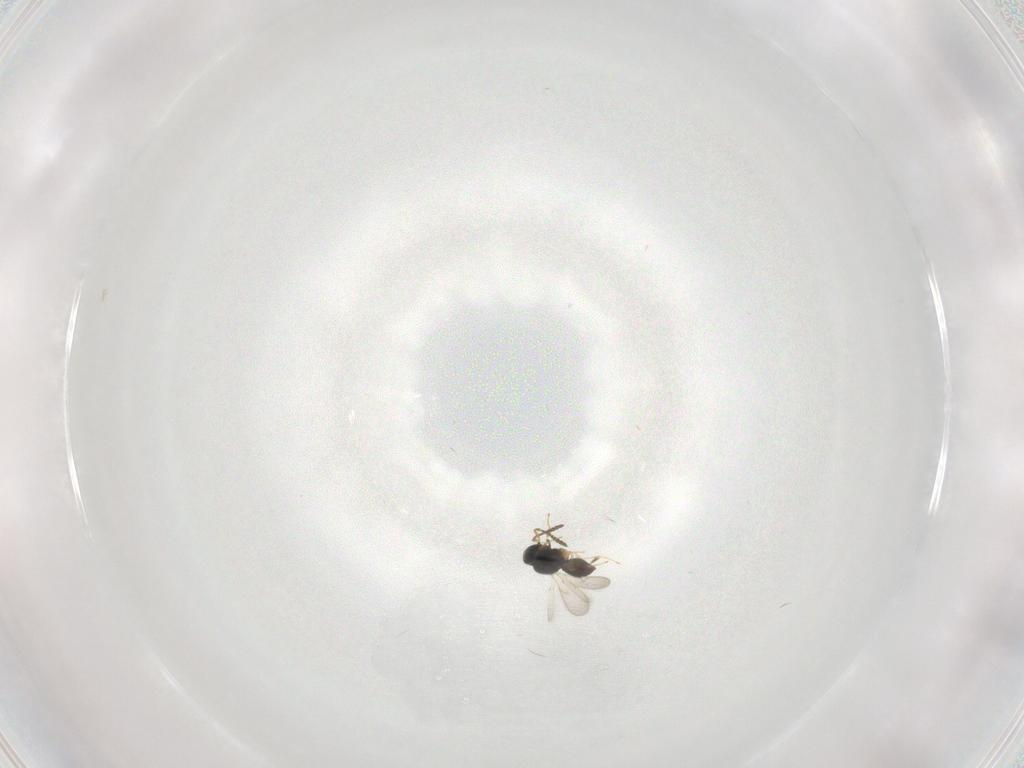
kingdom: Animalia
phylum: Arthropoda
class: Insecta
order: Hymenoptera
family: Scelionidae
